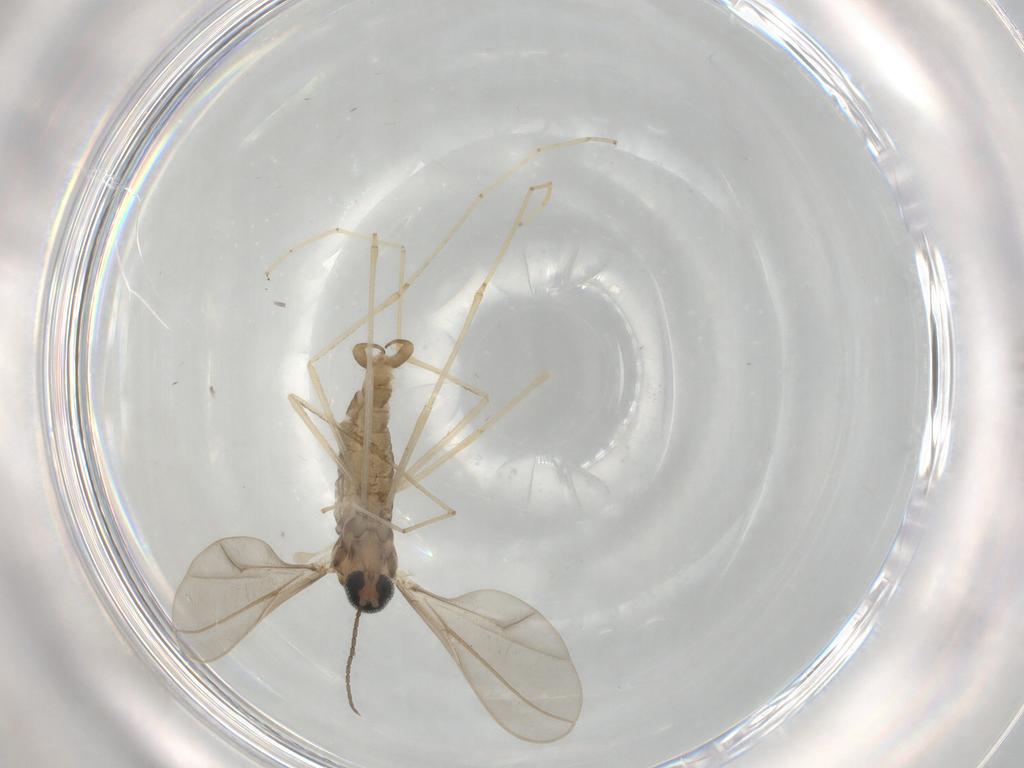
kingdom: Animalia
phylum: Arthropoda
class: Insecta
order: Diptera
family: Cecidomyiidae
